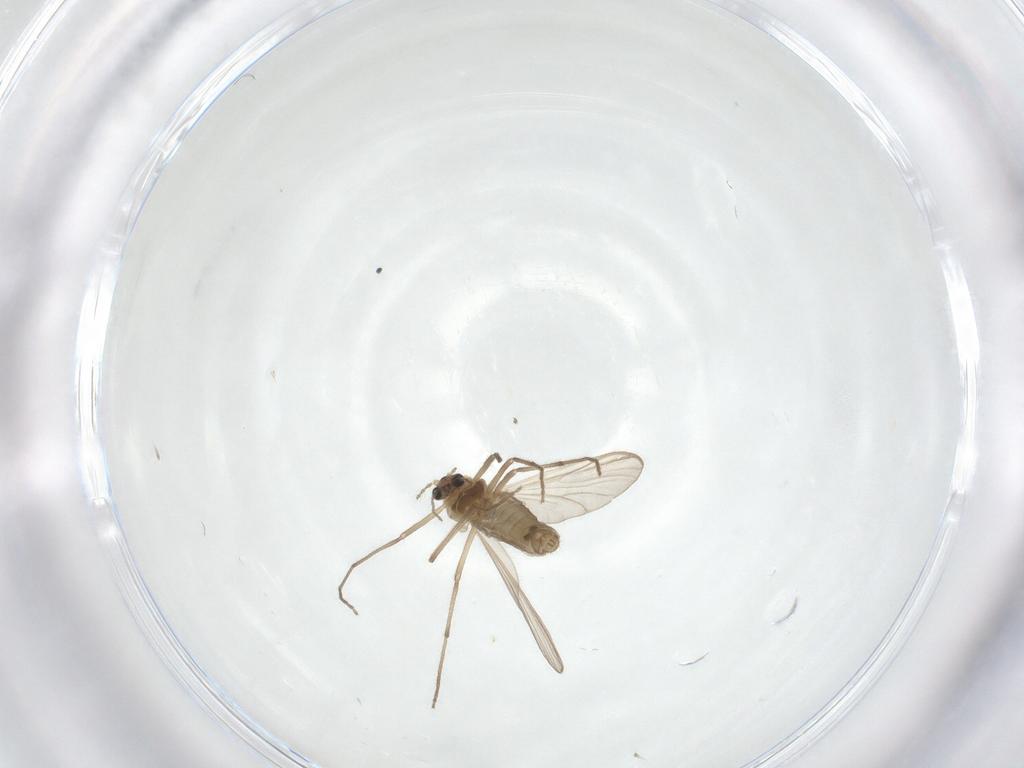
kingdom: Animalia
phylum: Arthropoda
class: Insecta
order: Diptera
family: Chironomidae
